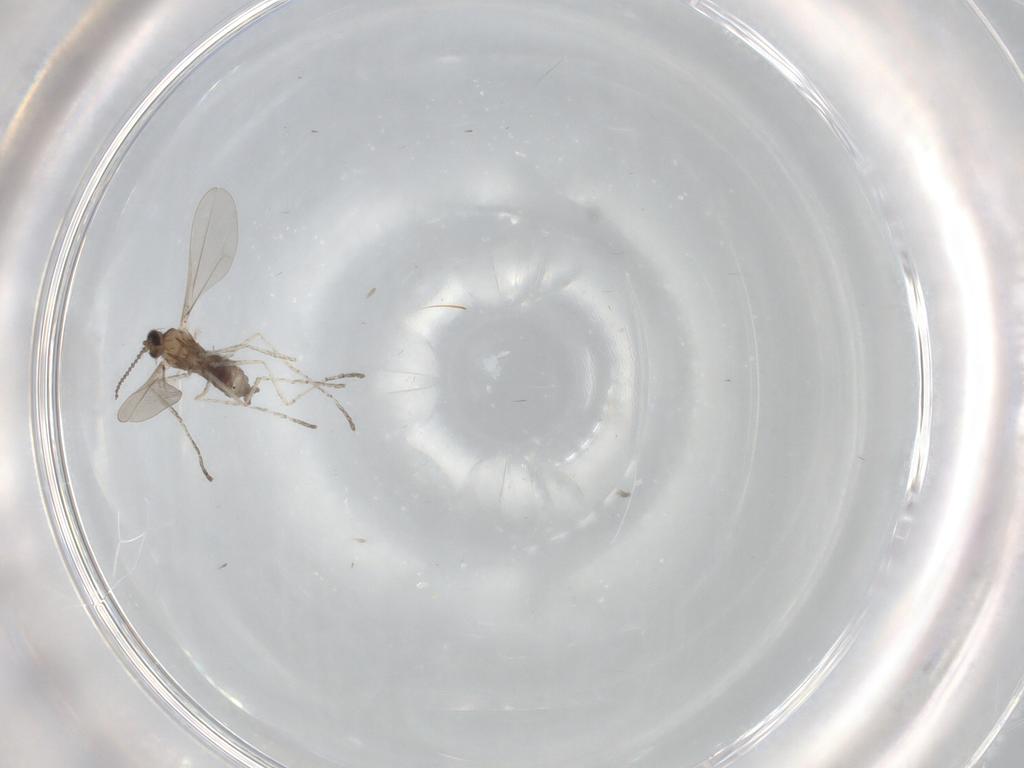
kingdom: Animalia
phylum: Arthropoda
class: Insecta
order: Diptera
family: Cecidomyiidae
